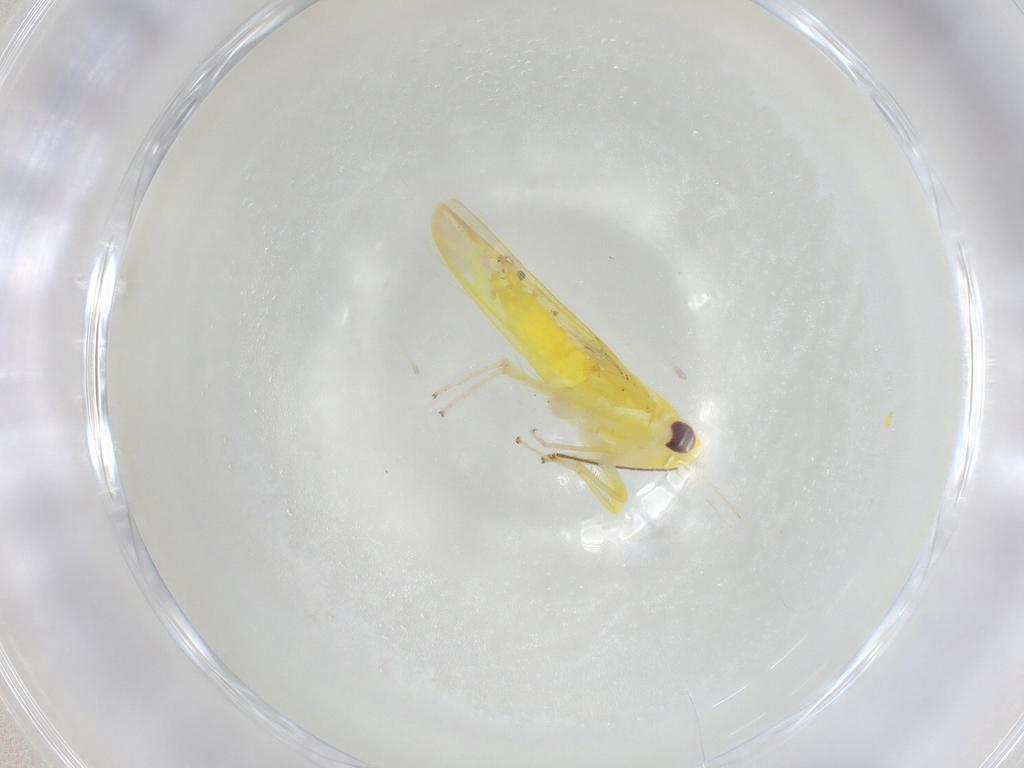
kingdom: Animalia
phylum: Arthropoda
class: Insecta
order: Hemiptera
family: Cicadellidae
